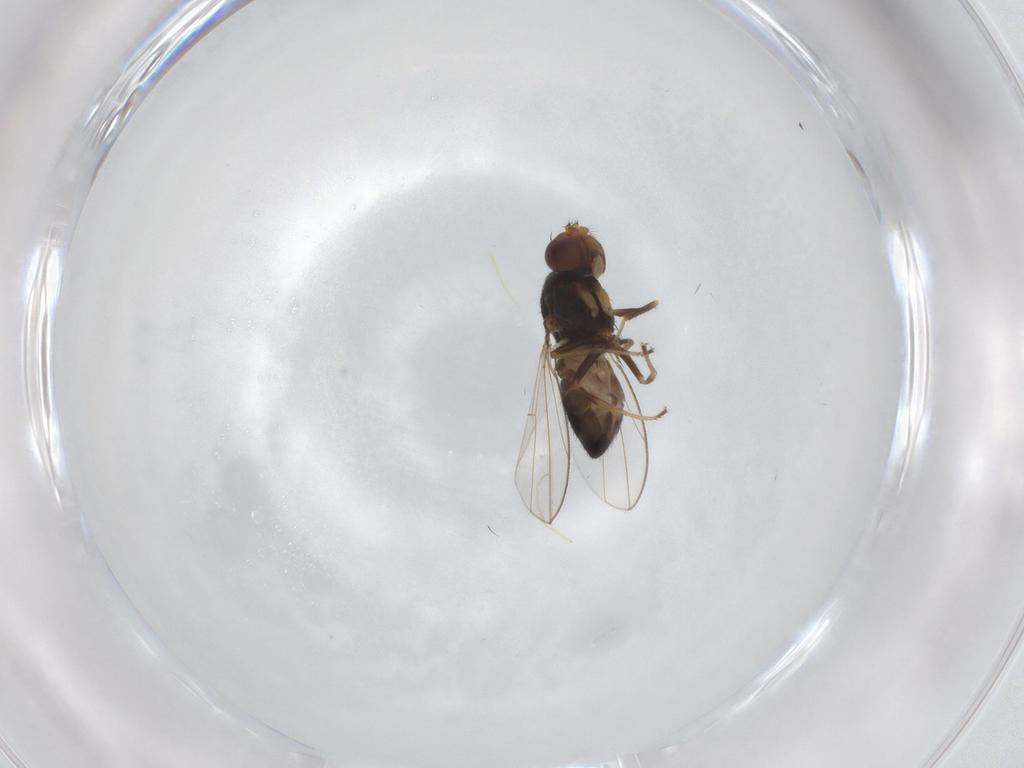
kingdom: Animalia
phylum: Arthropoda
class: Insecta
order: Diptera
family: Ephydridae
